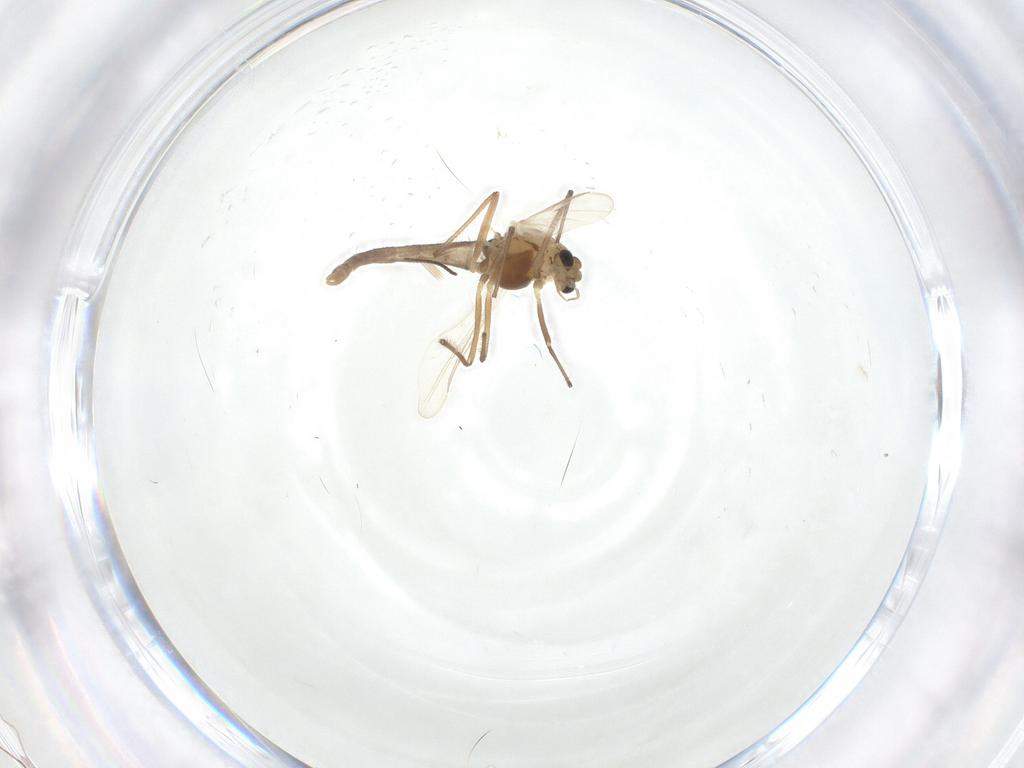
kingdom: Animalia
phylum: Arthropoda
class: Insecta
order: Diptera
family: Chironomidae
